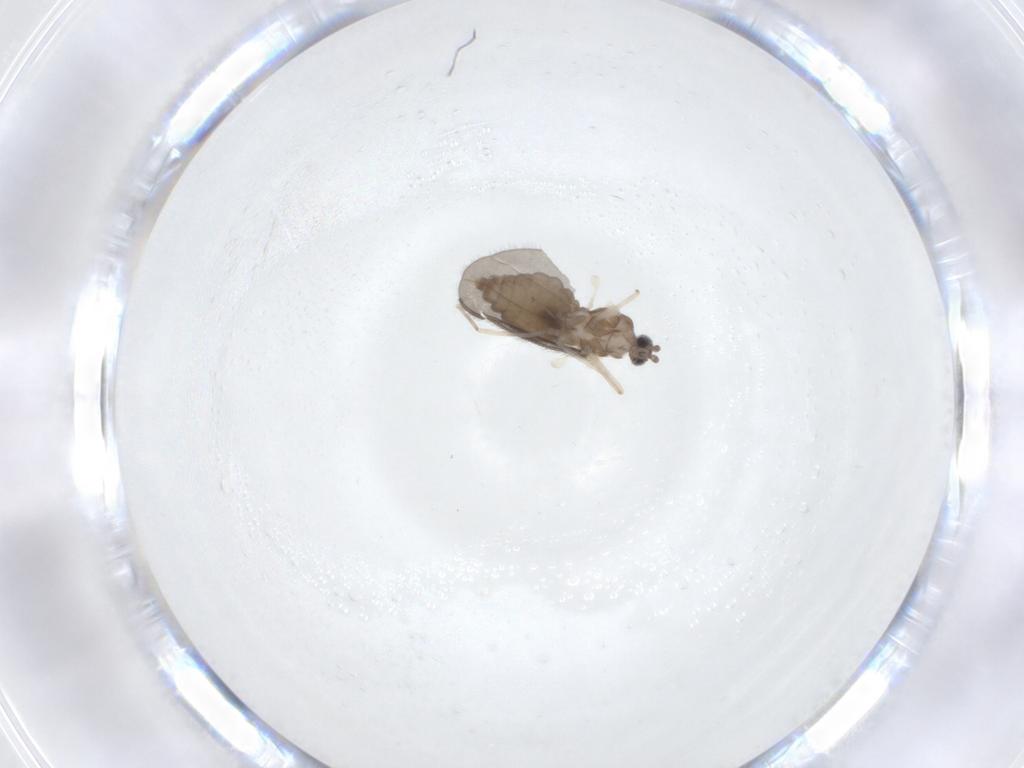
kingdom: Animalia
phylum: Arthropoda
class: Insecta
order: Diptera
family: Cecidomyiidae
